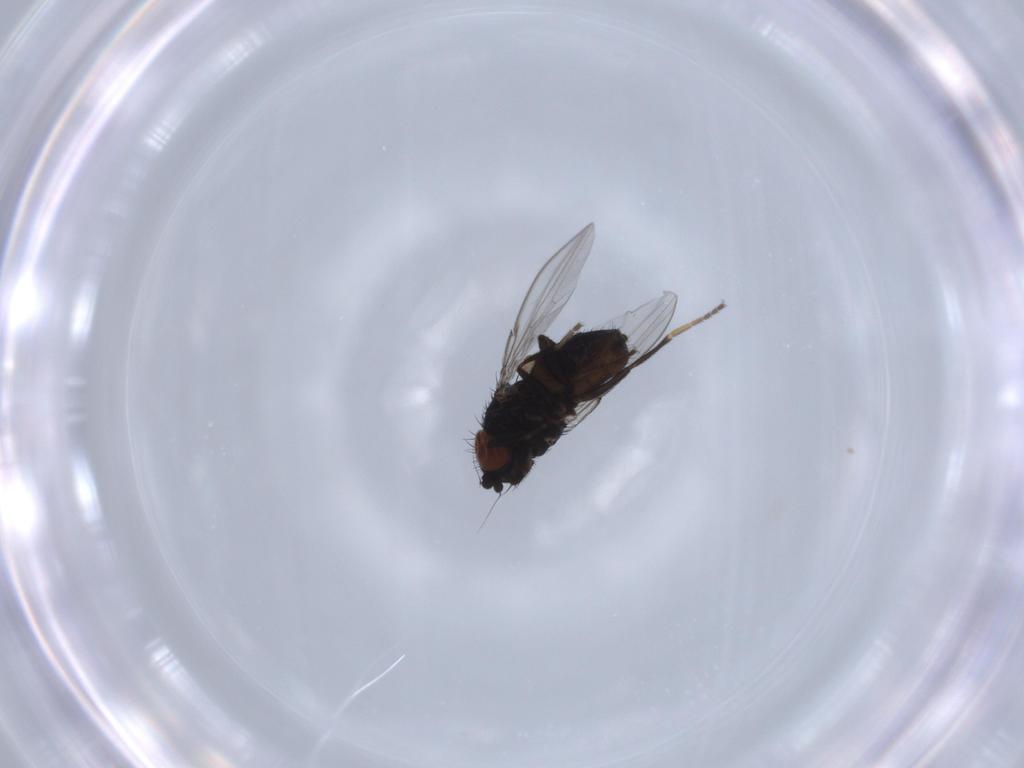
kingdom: Animalia
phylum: Arthropoda
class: Insecta
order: Diptera
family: Milichiidae
